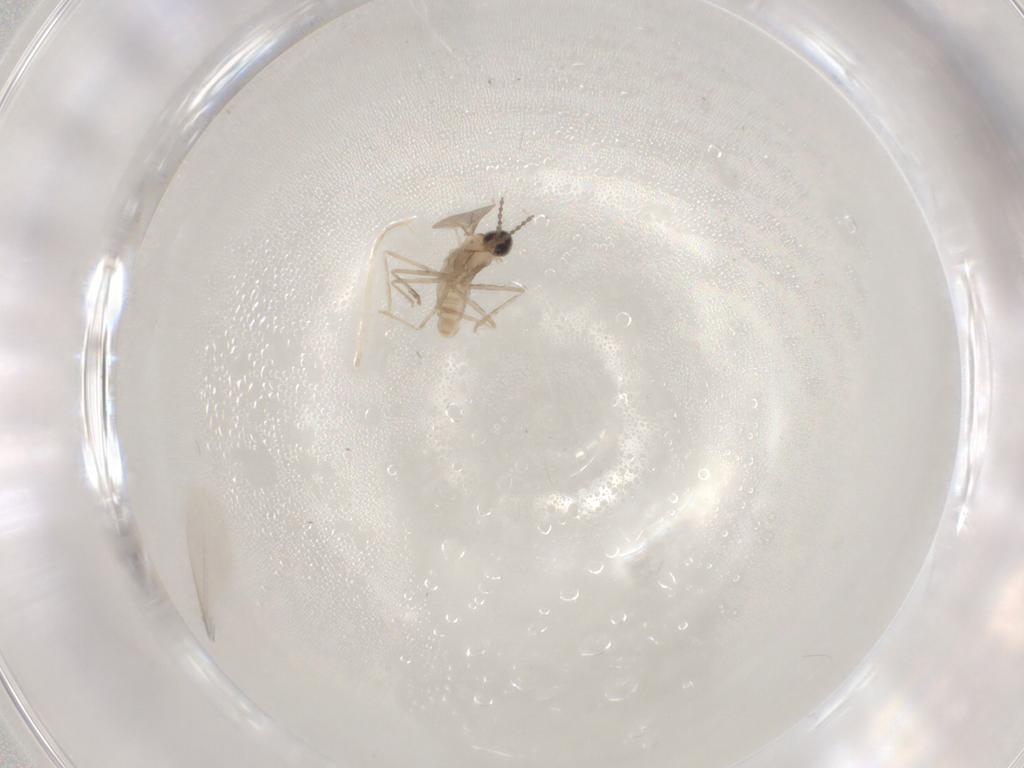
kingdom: Animalia
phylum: Arthropoda
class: Insecta
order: Diptera
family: Cecidomyiidae
